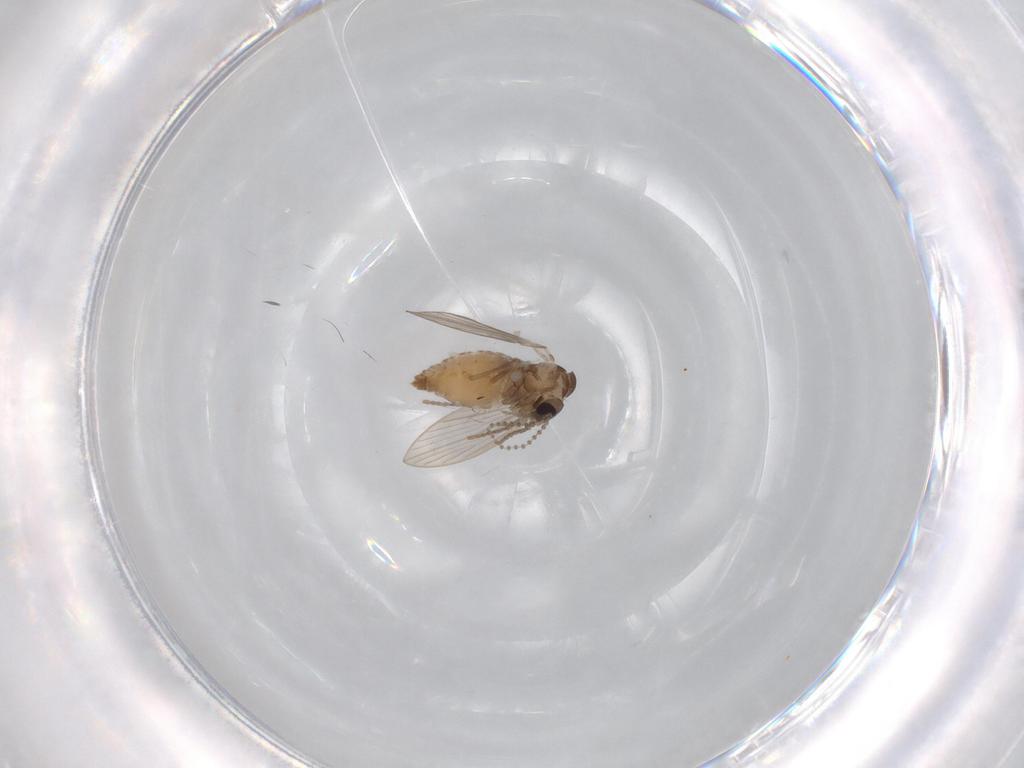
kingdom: Animalia
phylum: Arthropoda
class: Insecta
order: Diptera
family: Psychodidae
